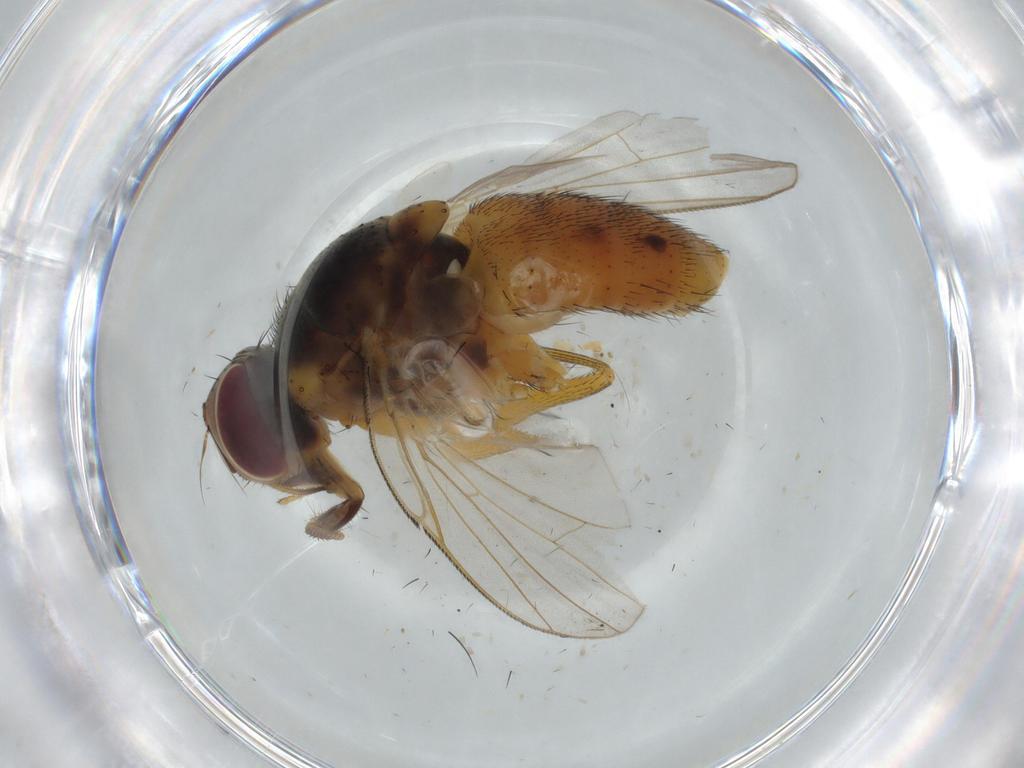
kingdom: Animalia
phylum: Arthropoda
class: Insecta
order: Diptera
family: Muscidae
